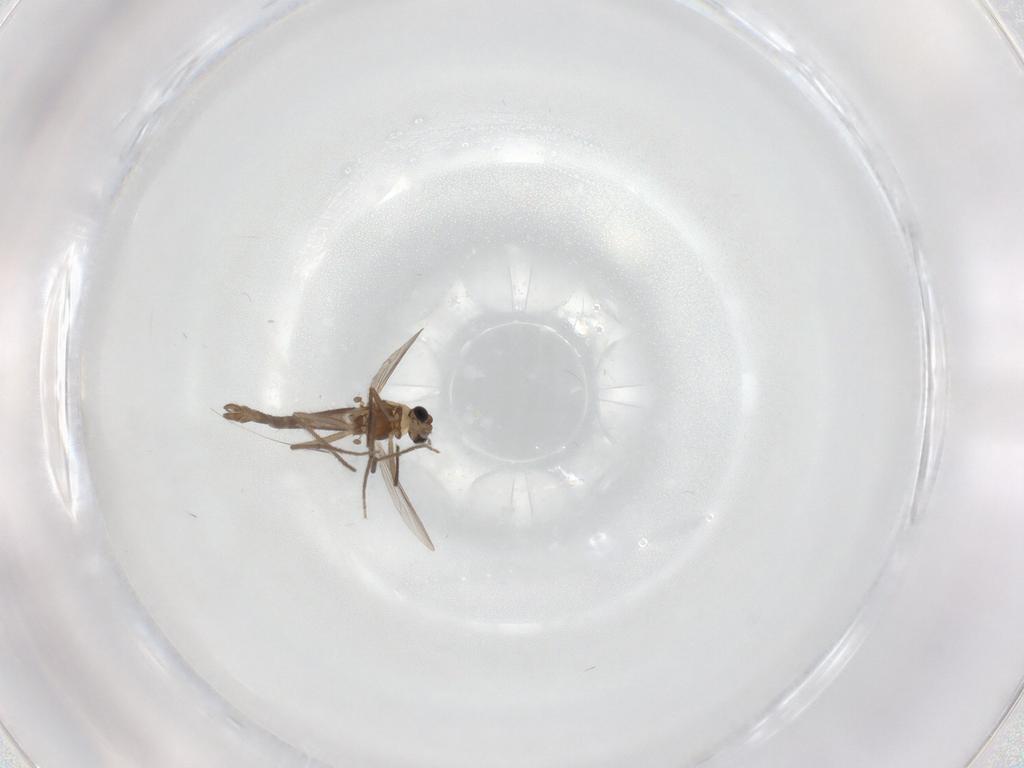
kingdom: Animalia
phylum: Arthropoda
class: Insecta
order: Diptera
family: Chironomidae
